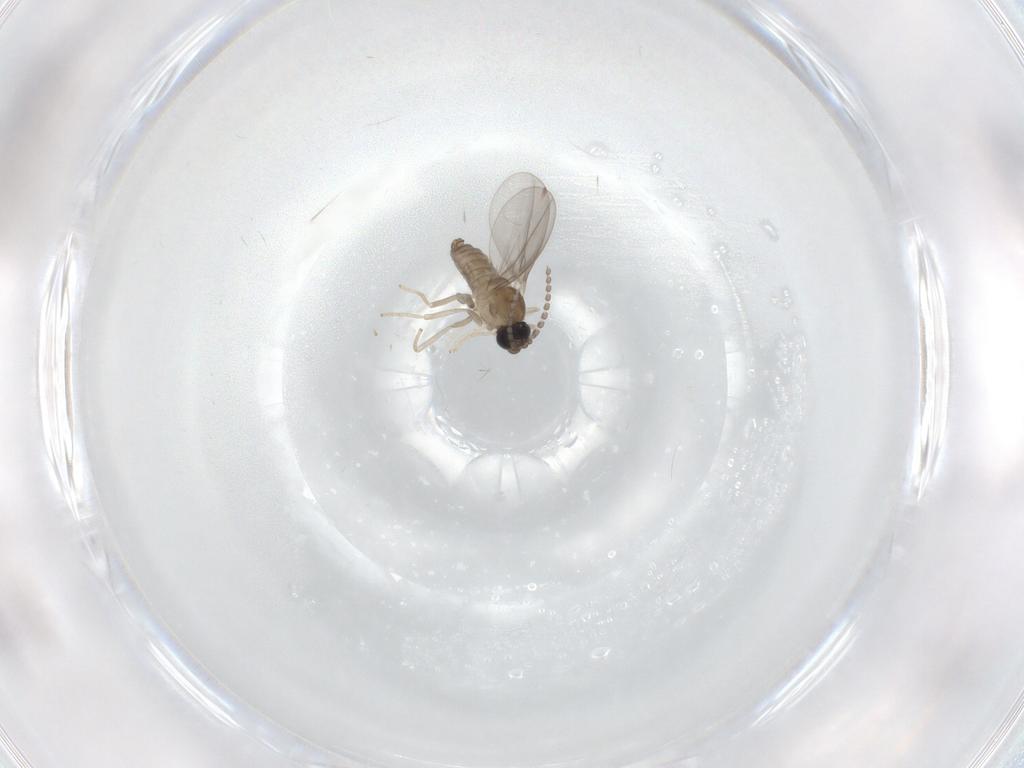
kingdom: Animalia
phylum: Arthropoda
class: Insecta
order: Diptera
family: Cecidomyiidae
